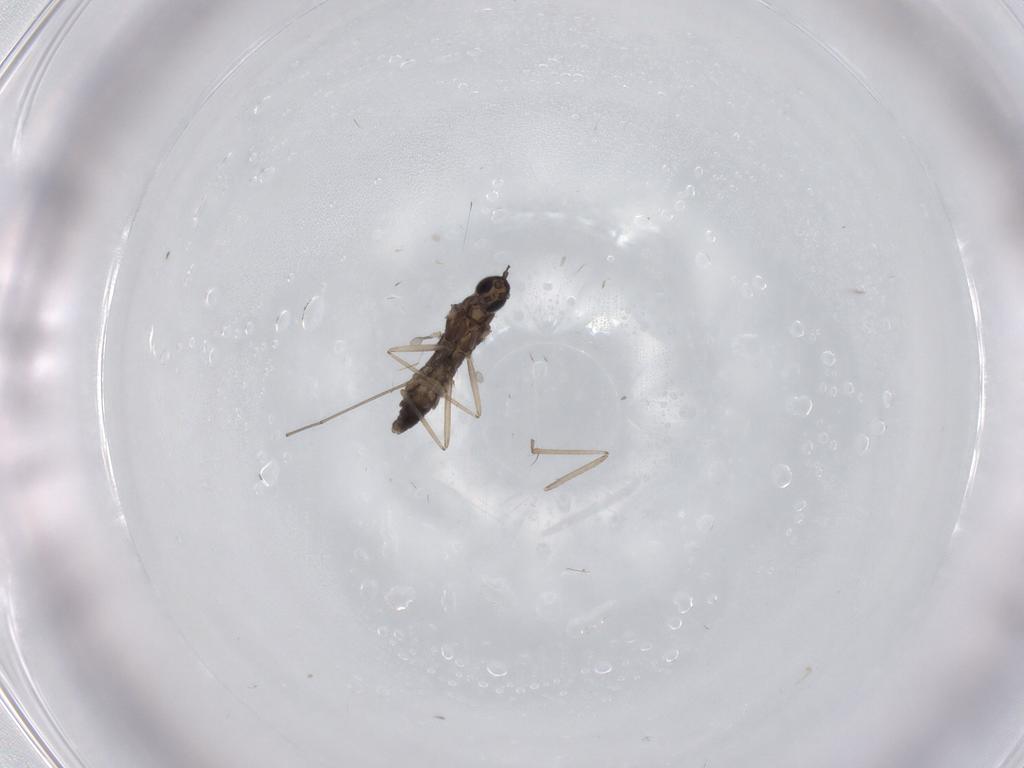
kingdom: Animalia
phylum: Arthropoda
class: Insecta
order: Diptera
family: Cecidomyiidae
